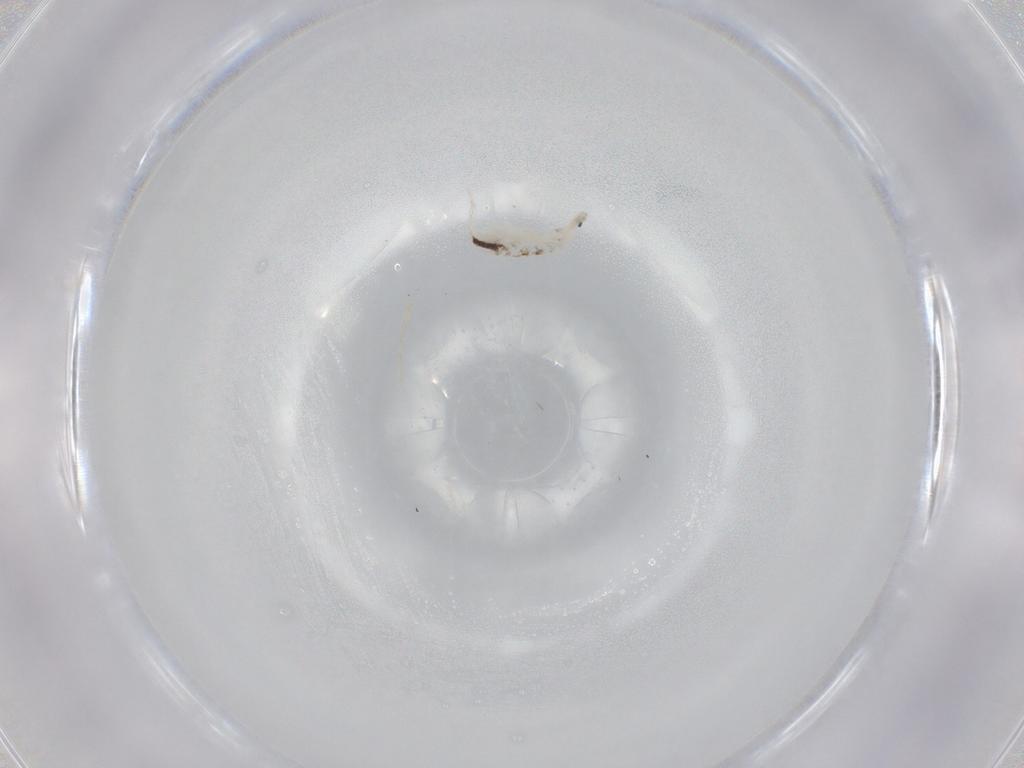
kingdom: Animalia
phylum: Arthropoda
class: Collembola
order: Entomobryomorpha
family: Entomobryidae
